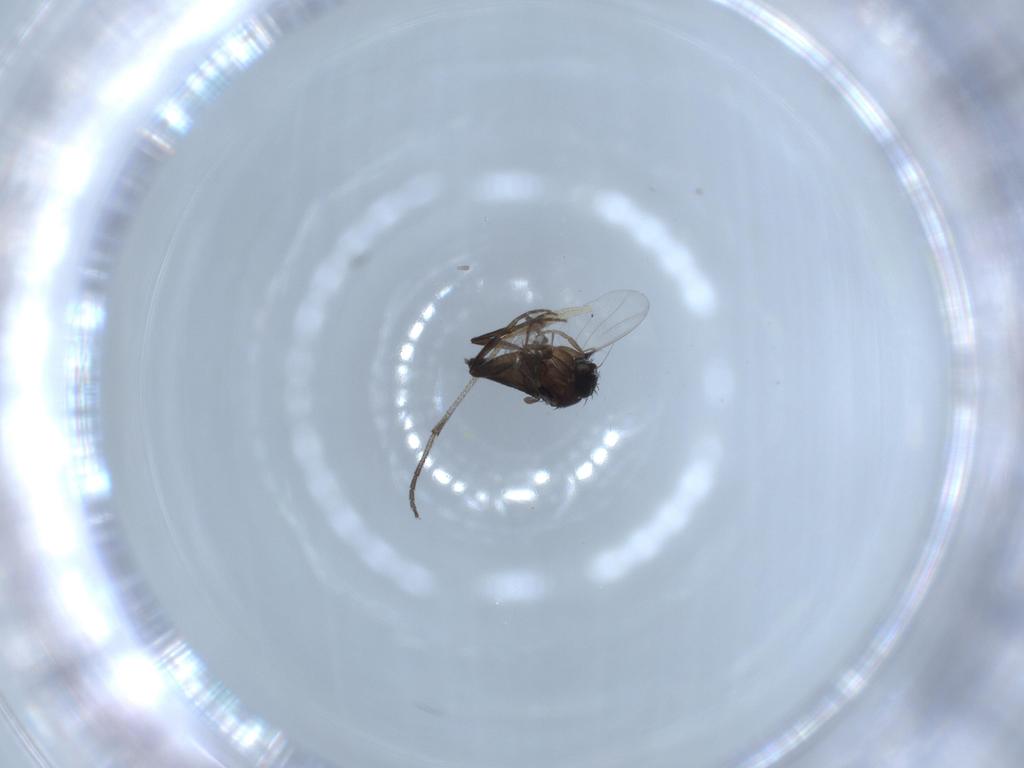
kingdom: Animalia
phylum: Arthropoda
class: Insecta
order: Diptera
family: Sciaridae
